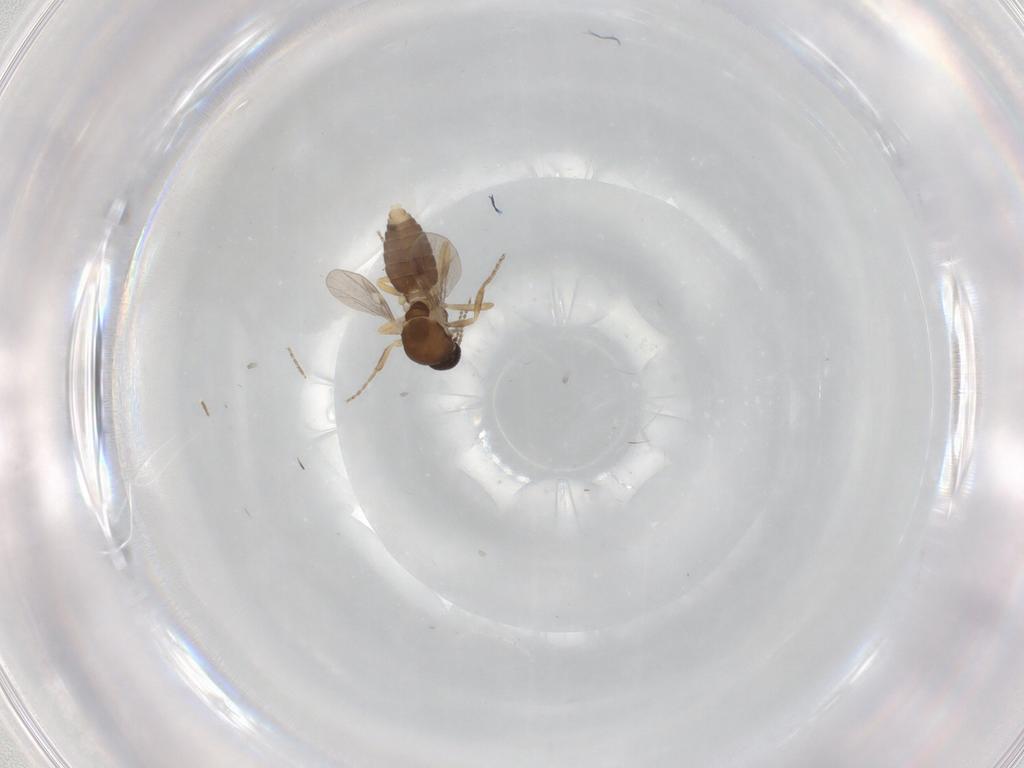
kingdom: Animalia
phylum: Arthropoda
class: Insecta
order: Diptera
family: Ceratopogonidae
